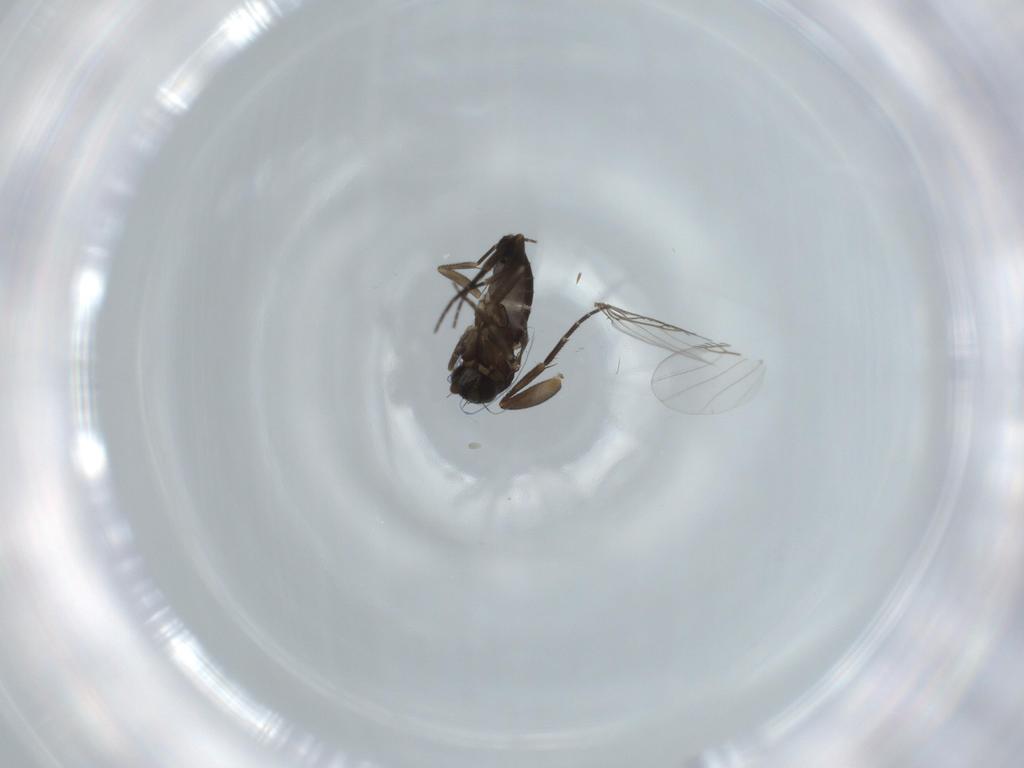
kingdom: Animalia
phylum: Arthropoda
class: Insecta
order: Diptera
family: Phoridae
